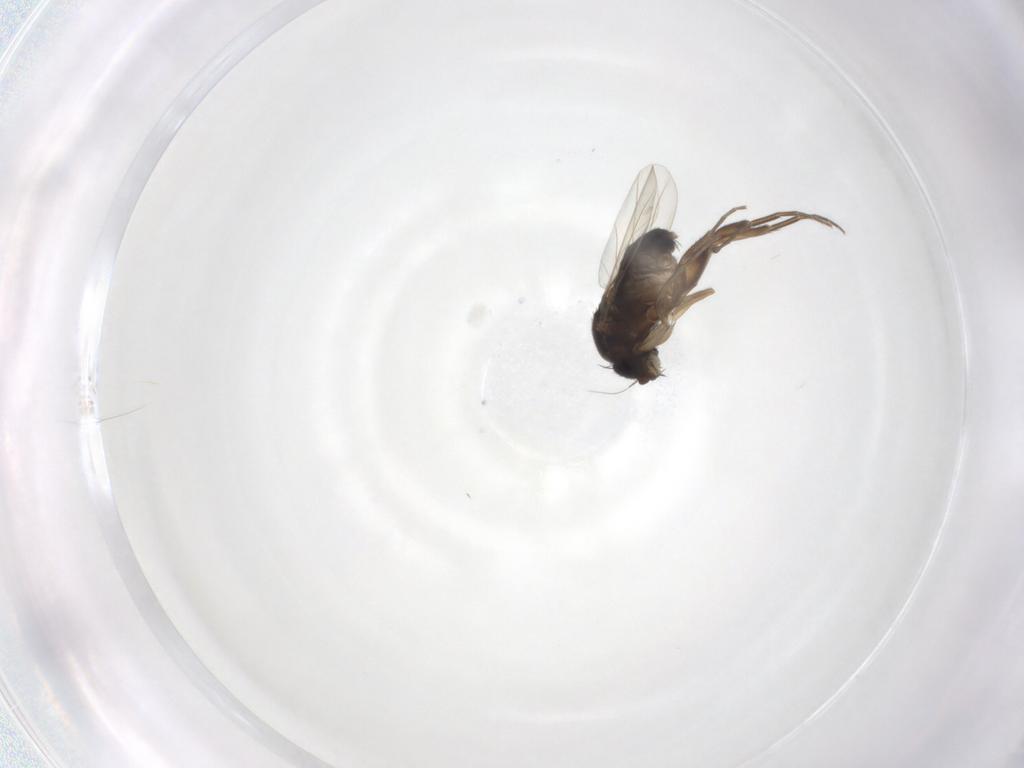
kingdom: Animalia
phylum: Arthropoda
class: Insecta
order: Diptera
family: Phoridae
